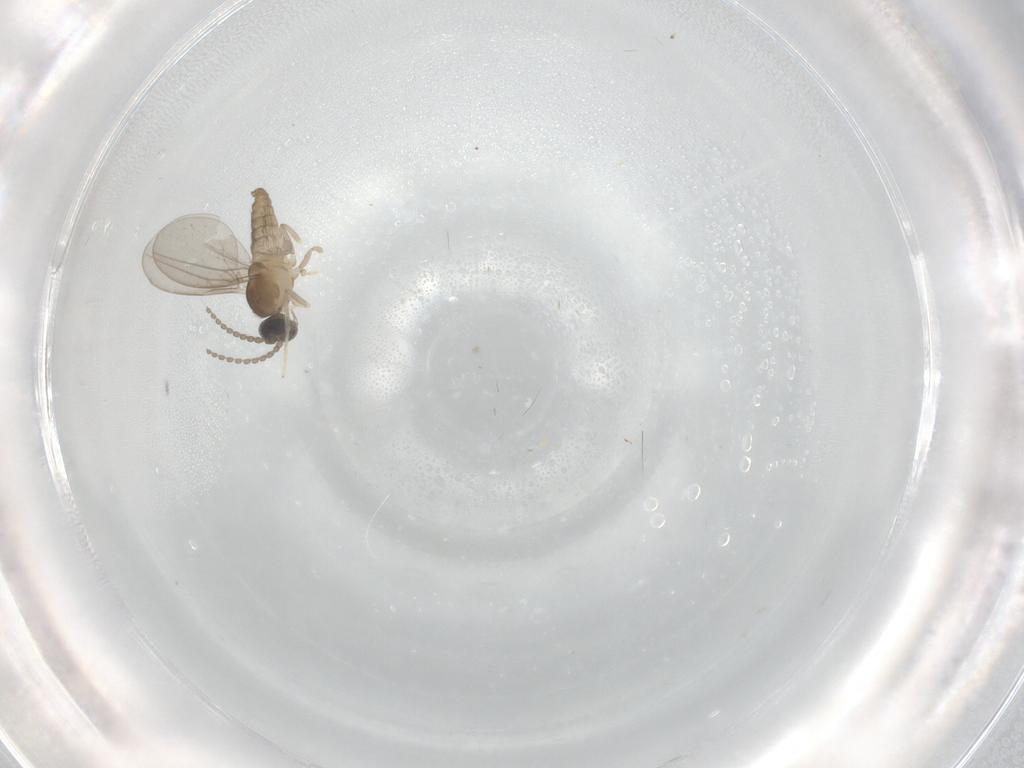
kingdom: Animalia
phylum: Arthropoda
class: Insecta
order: Diptera
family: Cecidomyiidae
